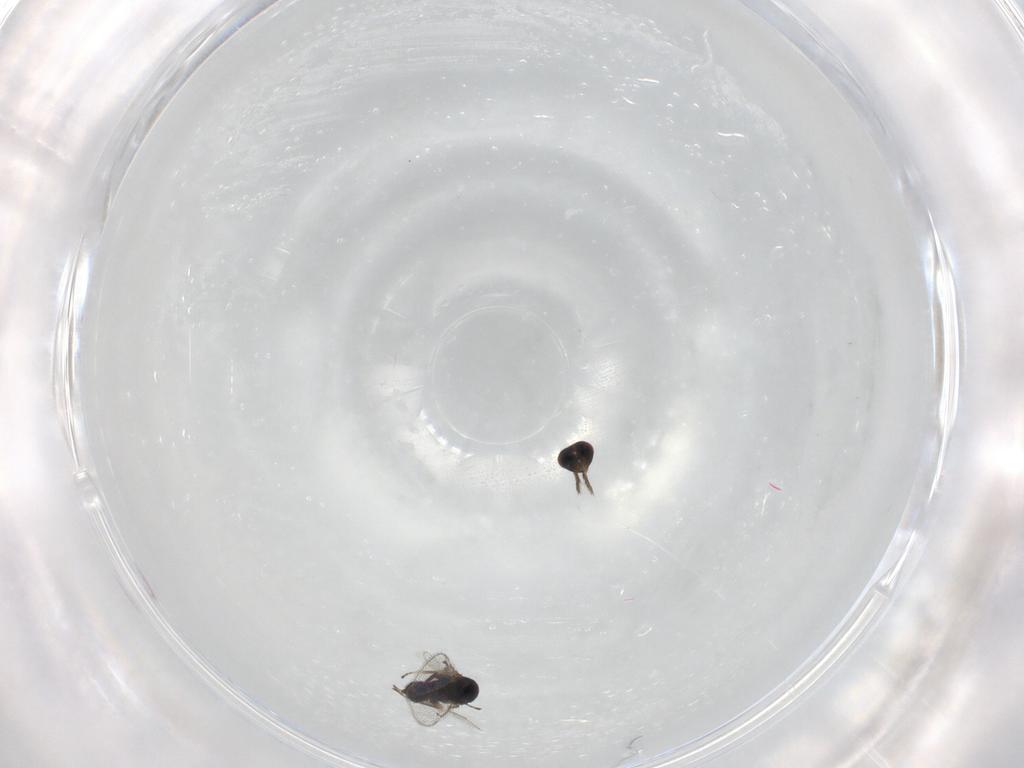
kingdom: Animalia
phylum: Arthropoda
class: Insecta
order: Hymenoptera
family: Eulophidae
